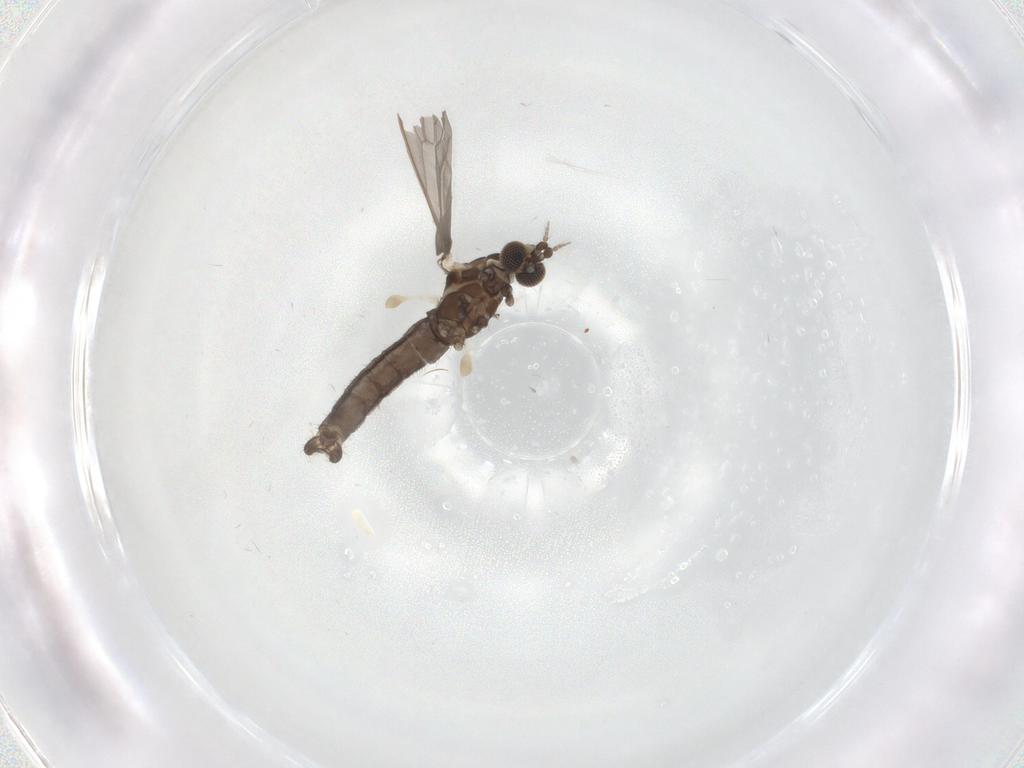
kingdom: Animalia
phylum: Arthropoda
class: Insecta
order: Diptera
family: Limoniidae
